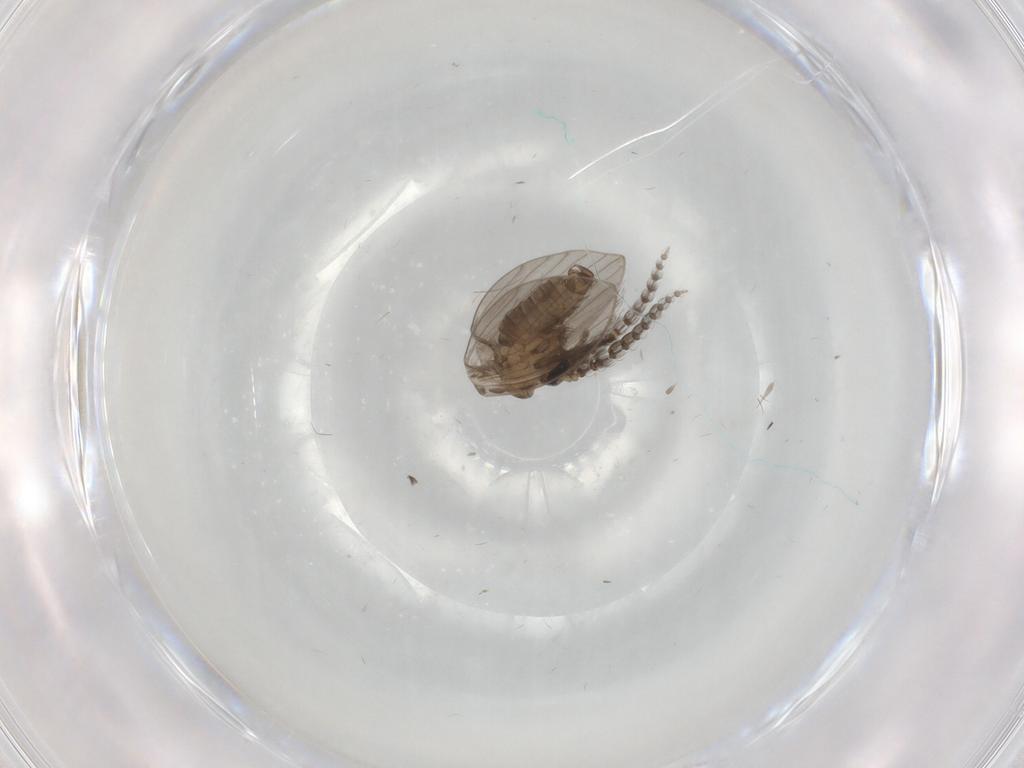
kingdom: Animalia
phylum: Arthropoda
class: Insecta
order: Diptera
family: Psychodidae
